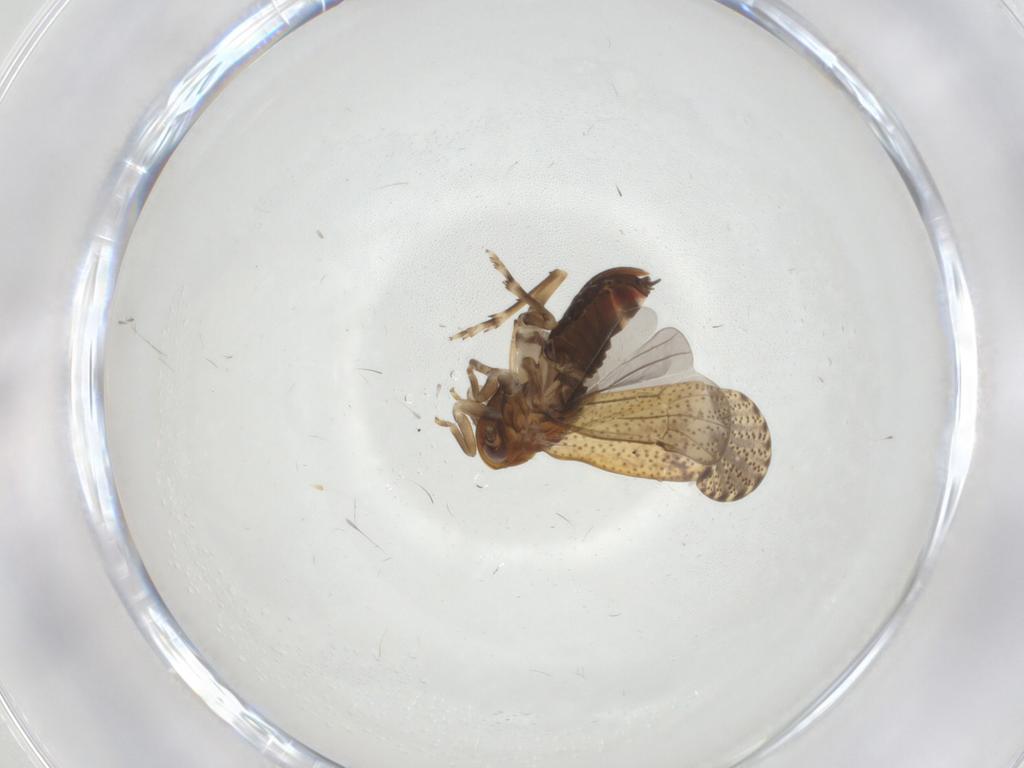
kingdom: Animalia
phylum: Arthropoda
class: Insecta
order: Hemiptera
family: Delphacidae
